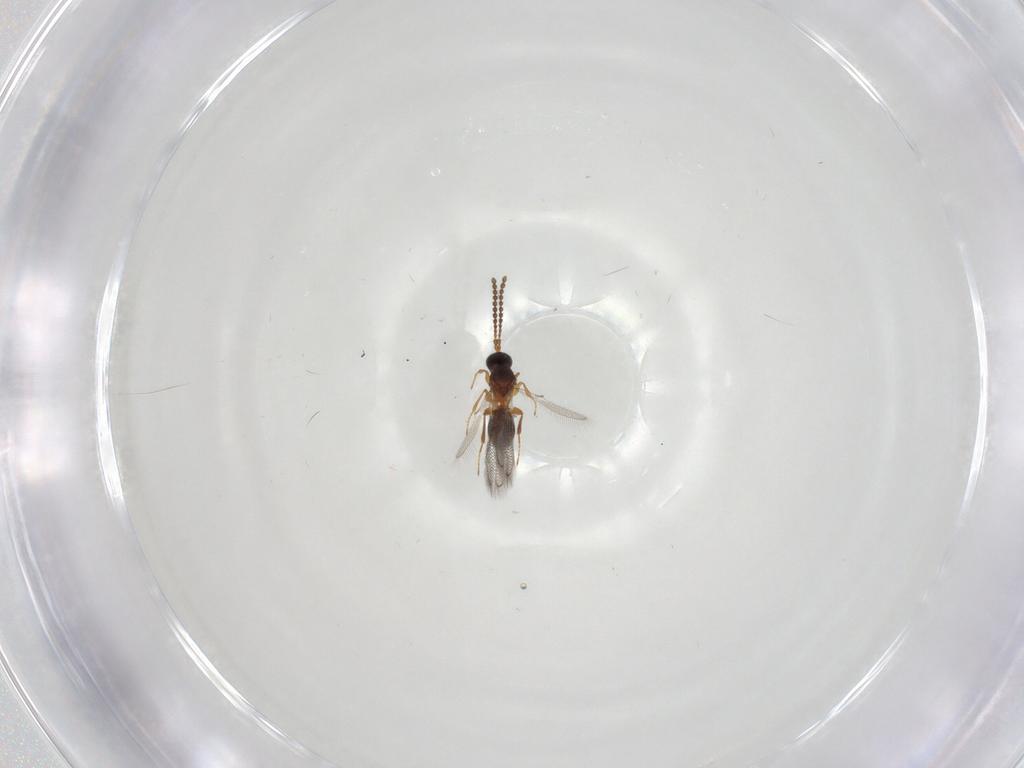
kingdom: Animalia
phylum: Arthropoda
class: Insecta
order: Hymenoptera
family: Figitidae
